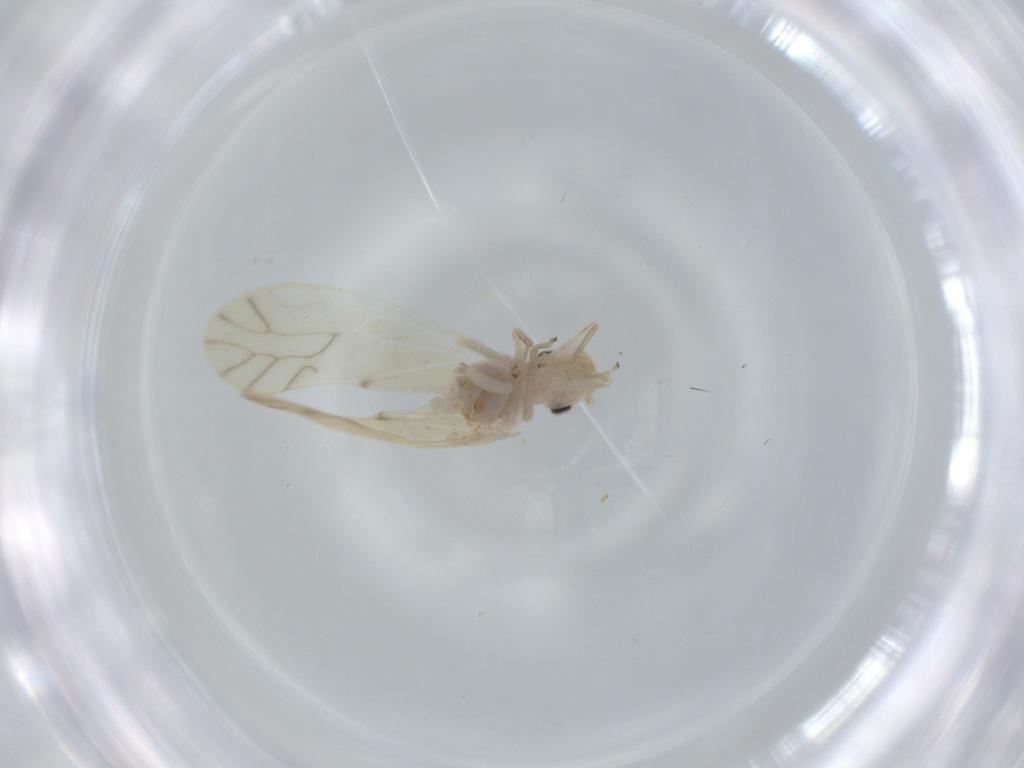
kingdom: Animalia
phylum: Arthropoda
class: Insecta
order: Psocodea
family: Caeciliusidae
